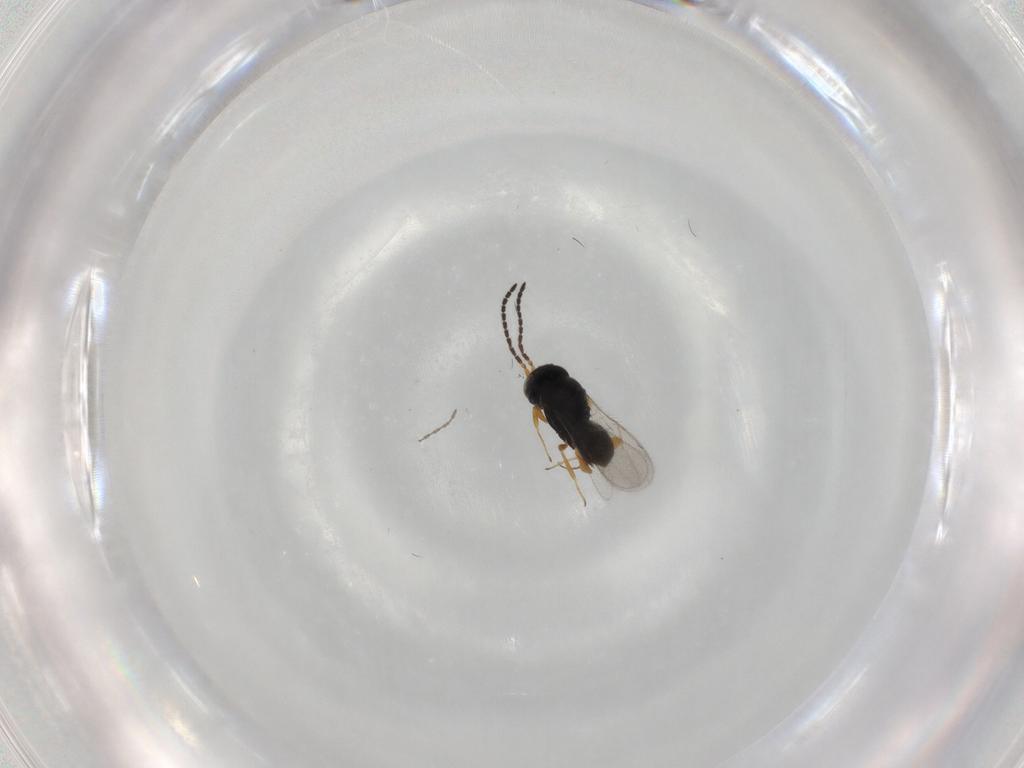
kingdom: Animalia
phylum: Arthropoda
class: Insecta
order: Hymenoptera
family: Scelionidae
